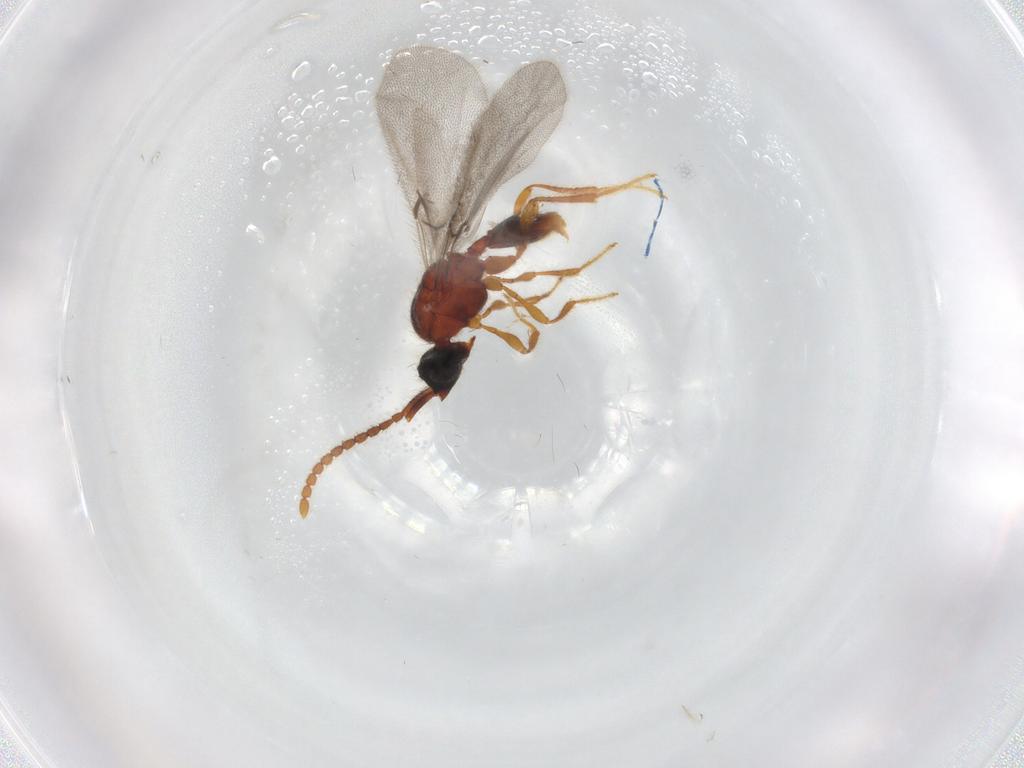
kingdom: Animalia
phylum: Arthropoda
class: Insecta
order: Hymenoptera
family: Diapriidae
